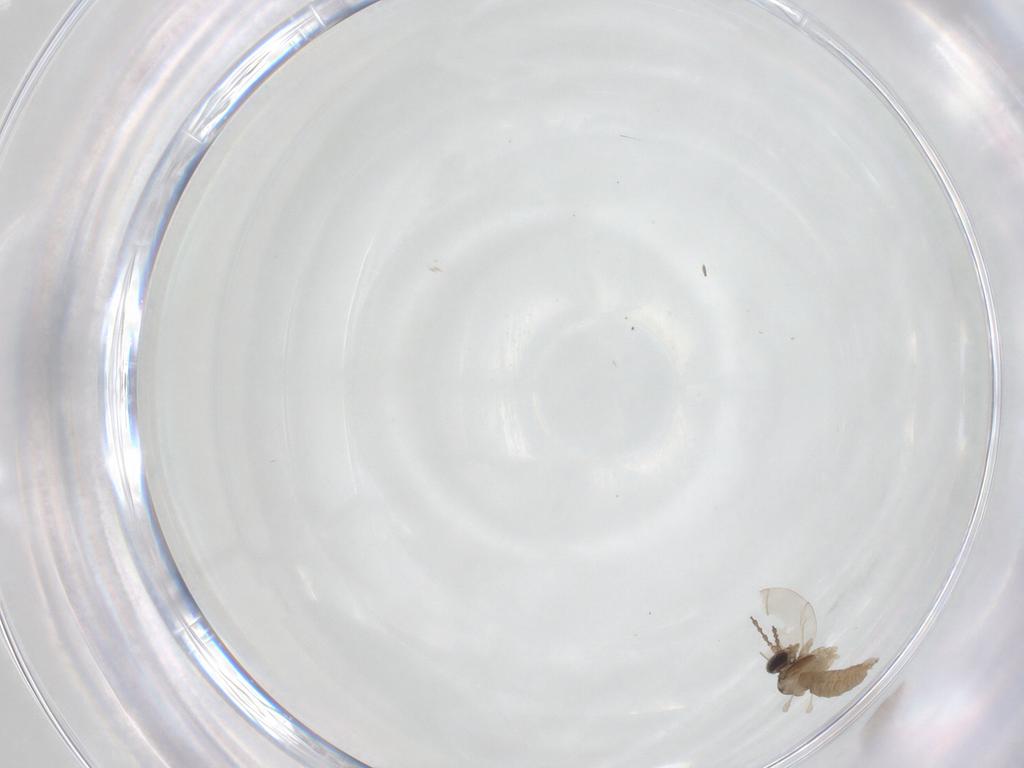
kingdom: Animalia
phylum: Arthropoda
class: Insecta
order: Diptera
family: Cecidomyiidae
